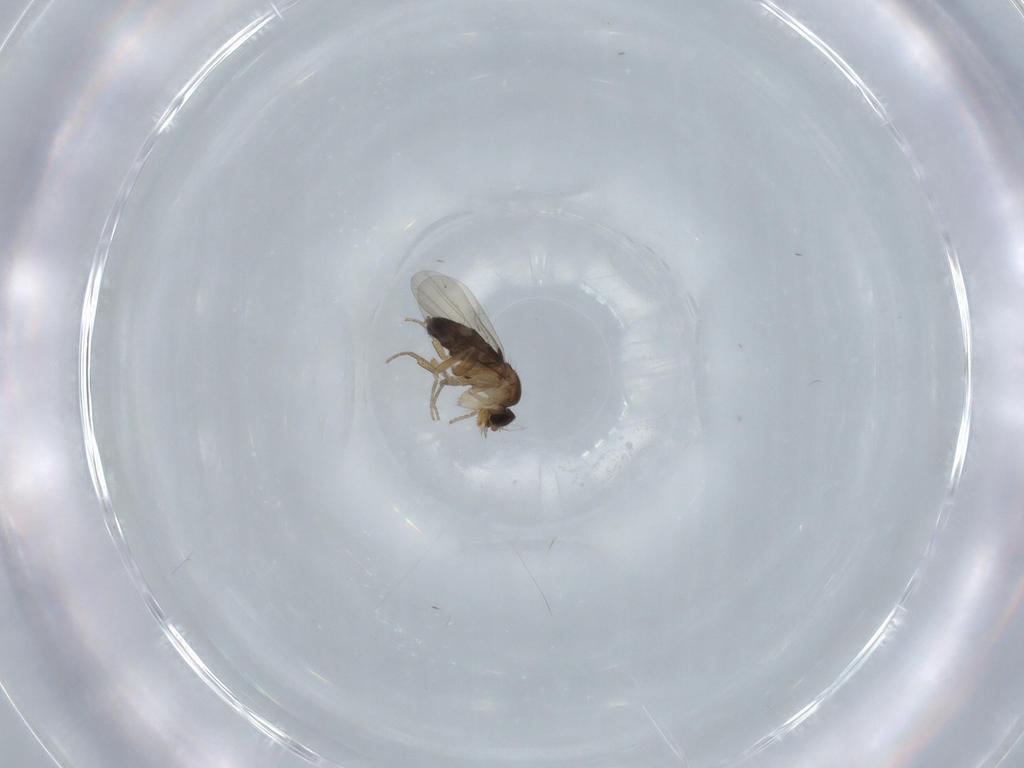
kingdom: Animalia
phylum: Arthropoda
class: Insecta
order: Diptera
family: Phoridae
